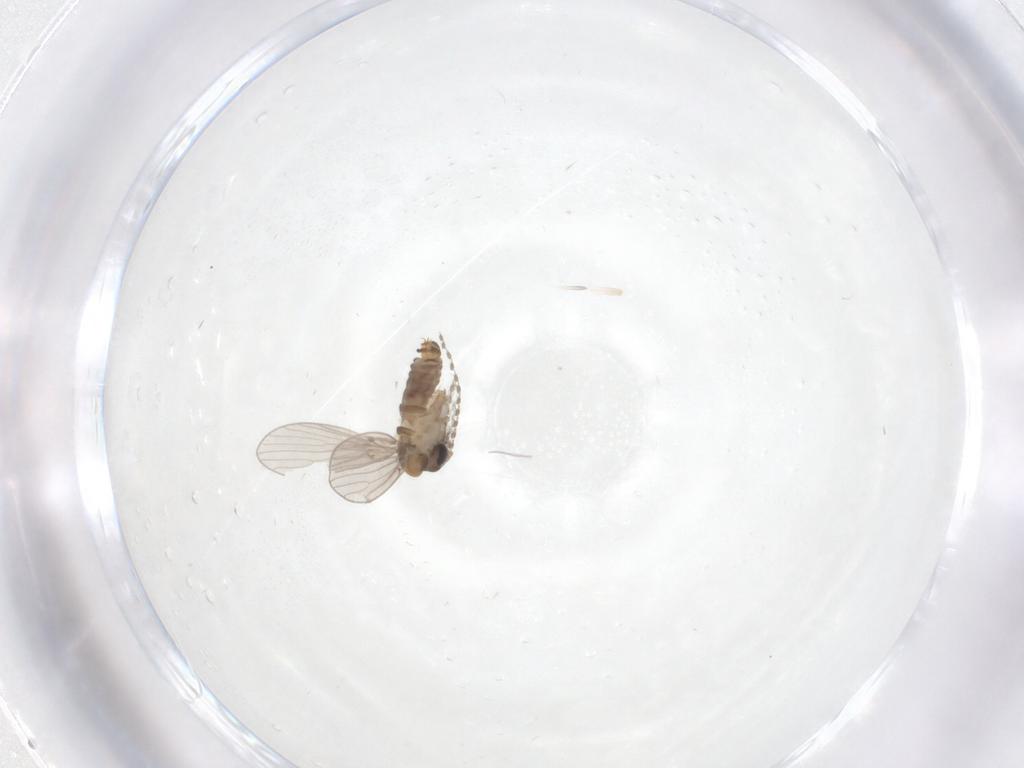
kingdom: Animalia
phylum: Arthropoda
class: Insecta
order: Diptera
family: Psychodidae
